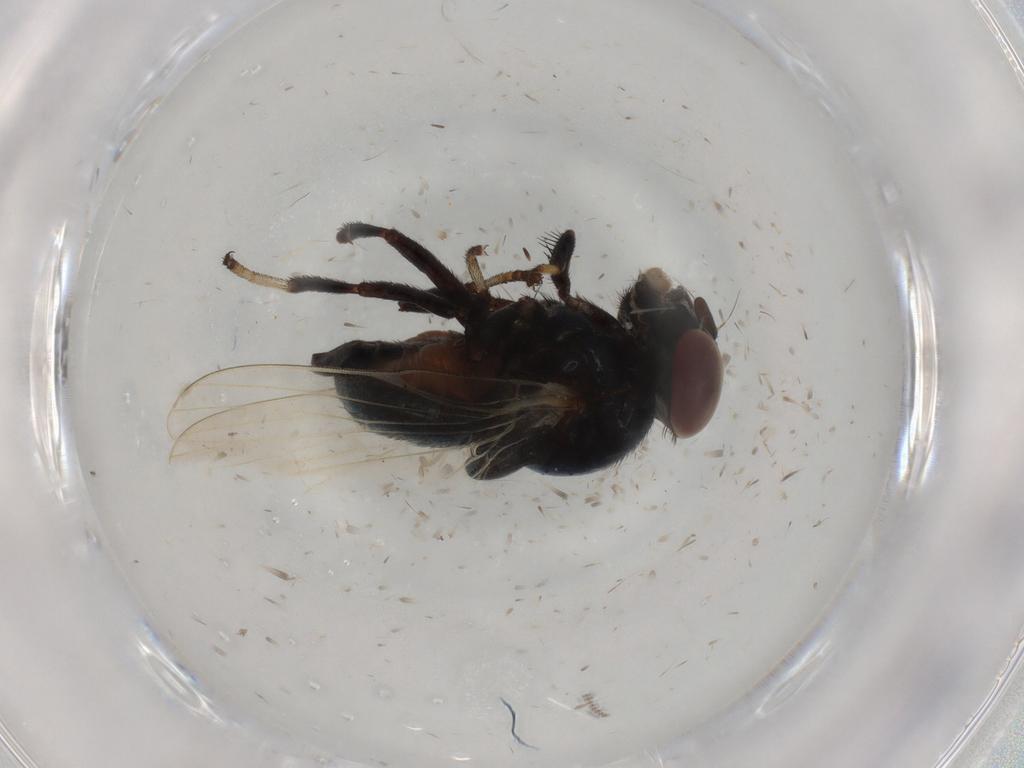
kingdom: Animalia
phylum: Arthropoda
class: Insecta
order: Diptera
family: Lonchaeidae
